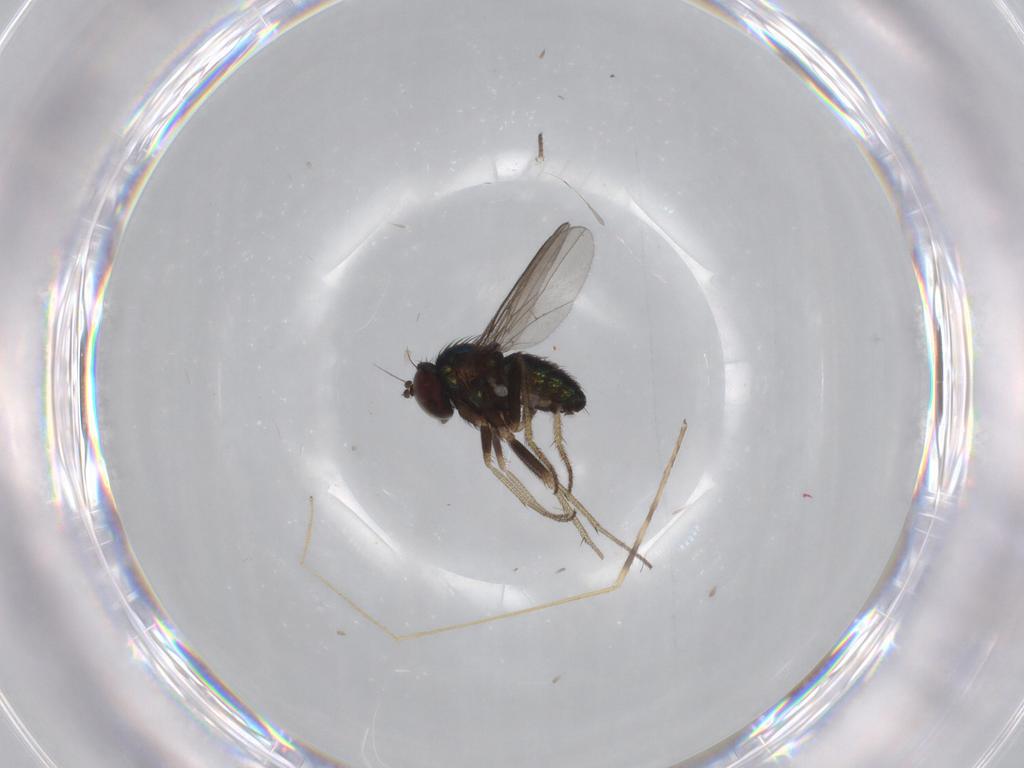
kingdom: Animalia
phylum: Arthropoda
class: Insecta
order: Diptera
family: Limoniidae
